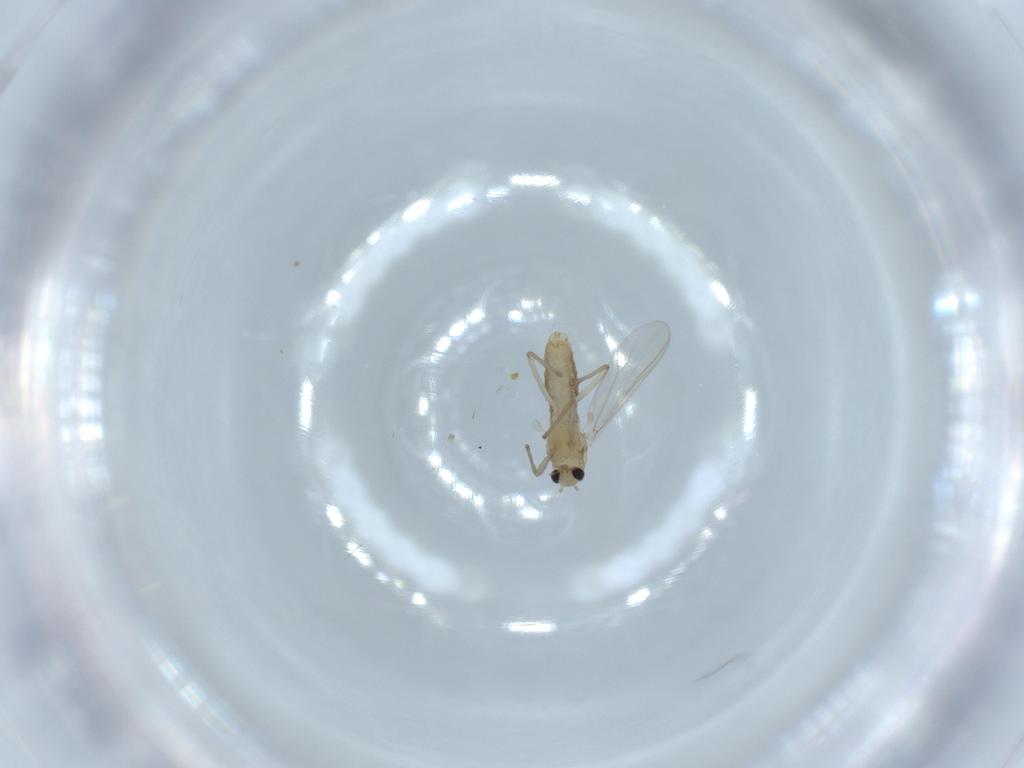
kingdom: Animalia
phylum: Arthropoda
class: Insecta
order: Diptera
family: Chironomidae
